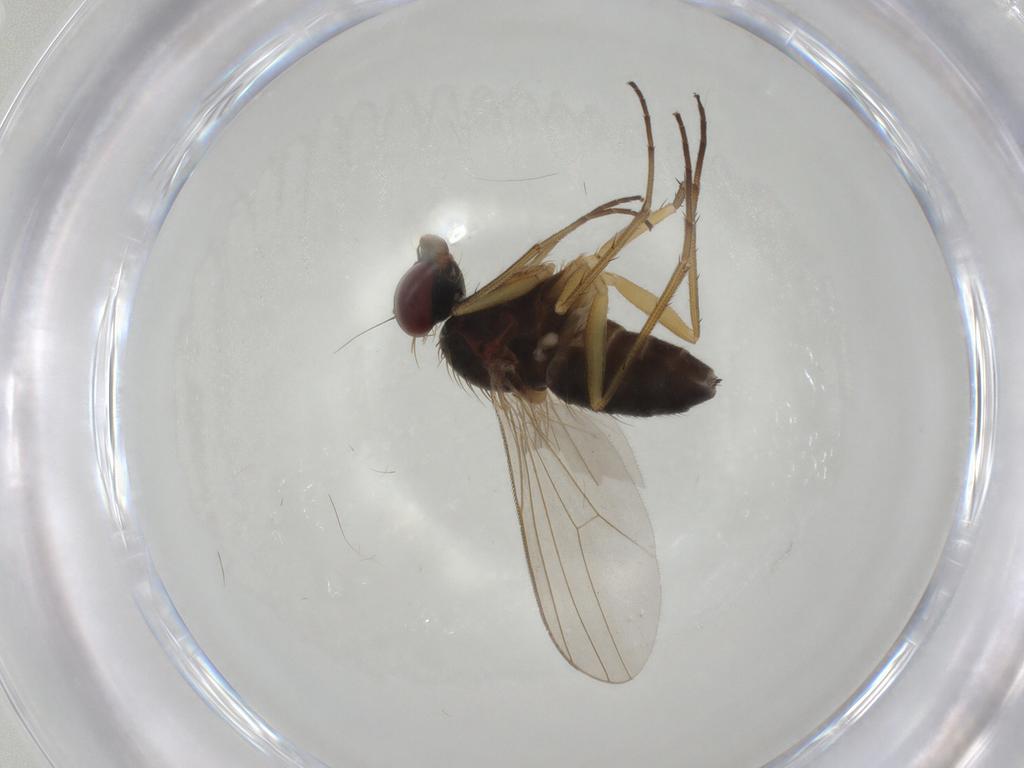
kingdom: Animalia
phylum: Arthropoda
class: Insecta
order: Diptera
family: Dolichopodidae
